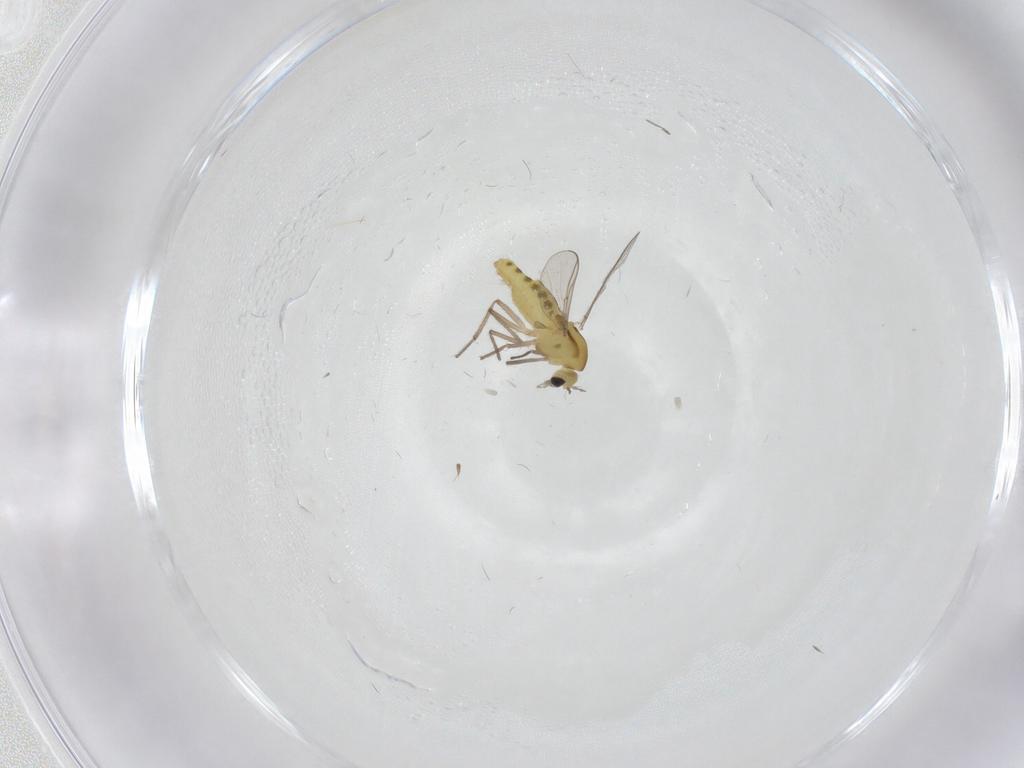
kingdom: Animalia
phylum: Arthropoda
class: Insecta
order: Diptera
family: Chironomidae
